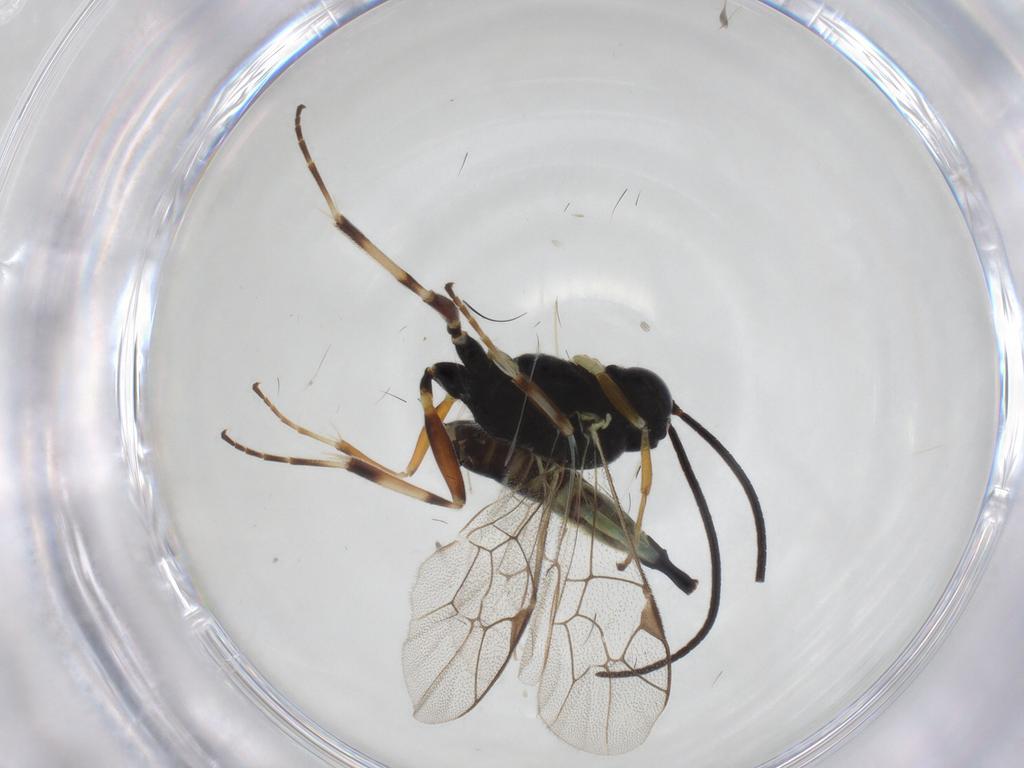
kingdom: Animalia
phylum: Arthropoda
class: Insecta
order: Hymenoptera
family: Ichneumonidae
